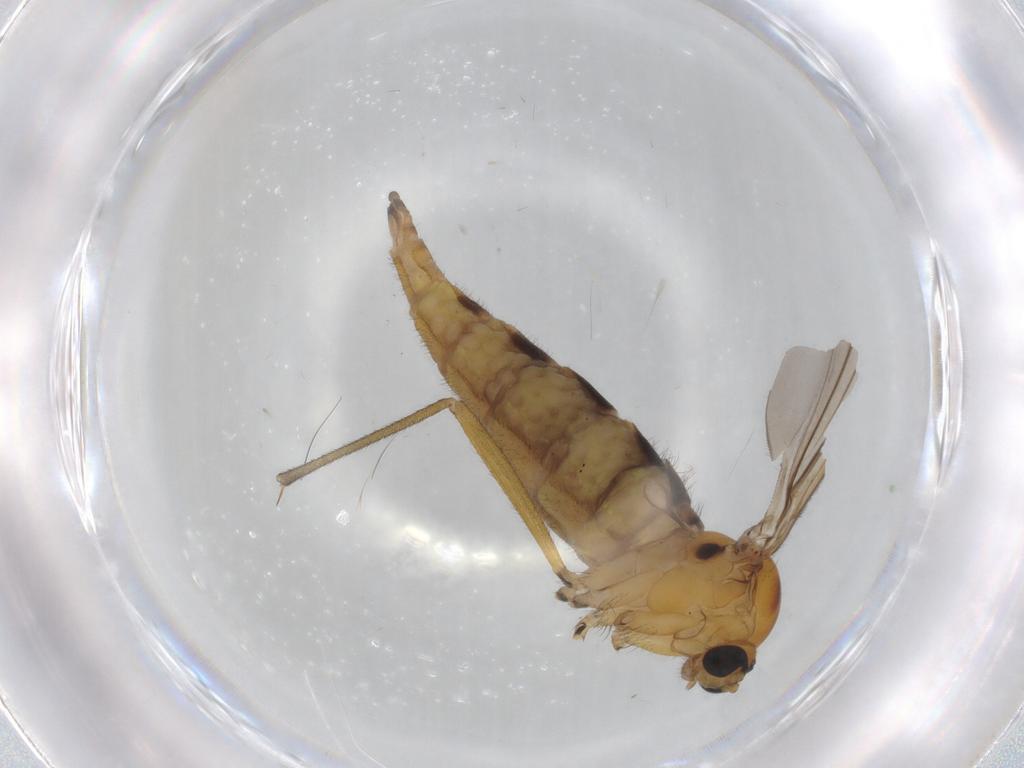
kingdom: Animalia
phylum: Arthropoda
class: Insecta
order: Diptera
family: Sciaridae
